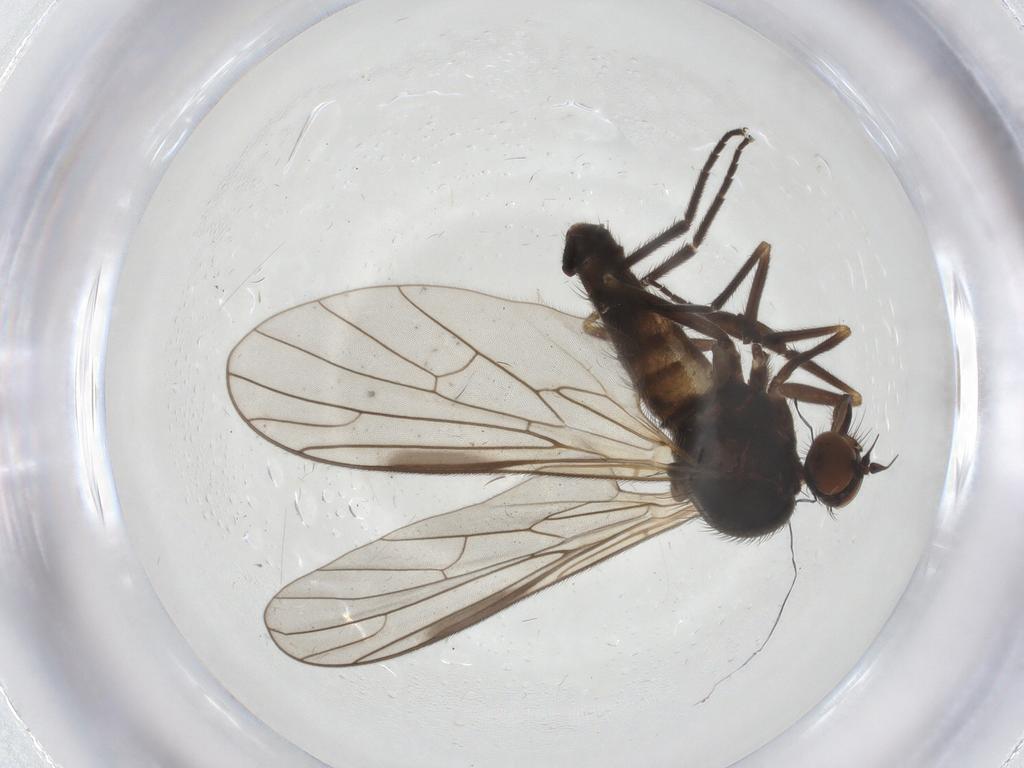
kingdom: Animalia
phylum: Arthropoda
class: Insecta
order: Diptera
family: Empididae
